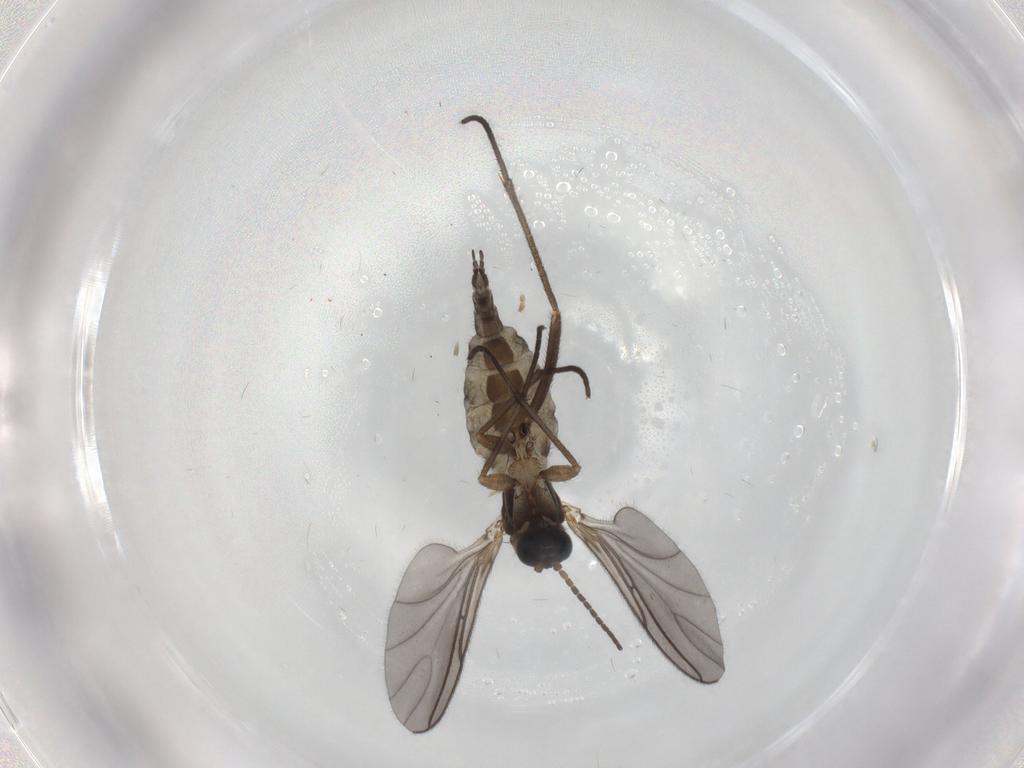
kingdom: Animalia
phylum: Arthropoda
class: Insecta
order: Diptera
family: Sciaridae
